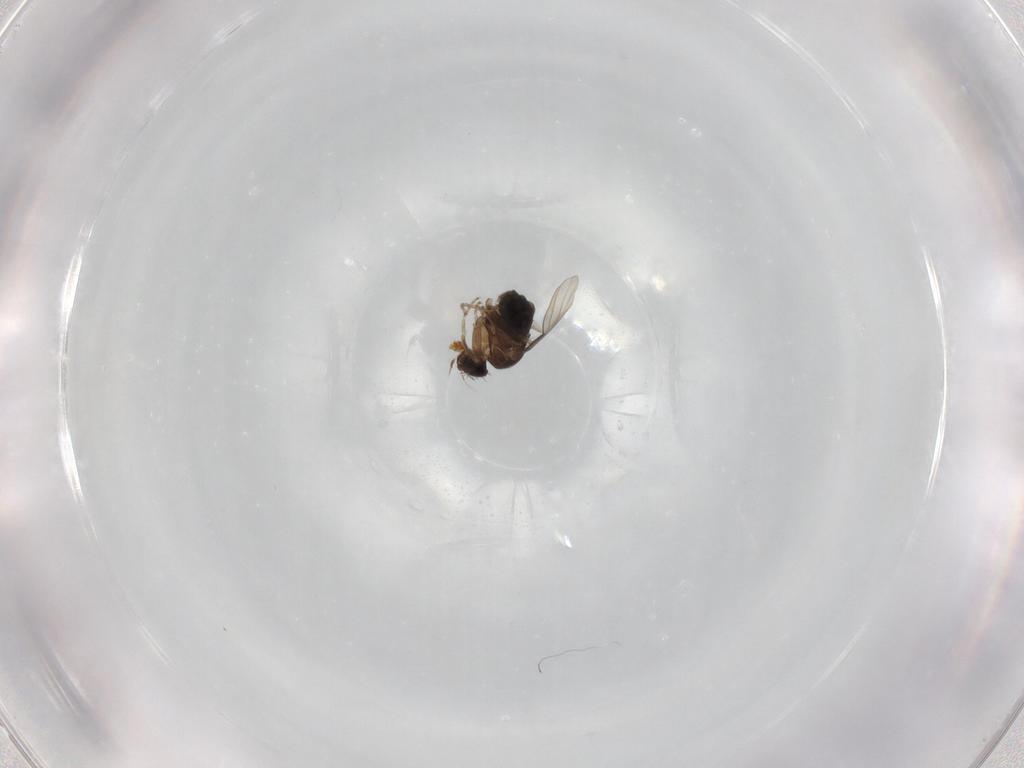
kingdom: Animalia
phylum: Arthropoda
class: Insecta
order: Diptera
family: Phoridae
